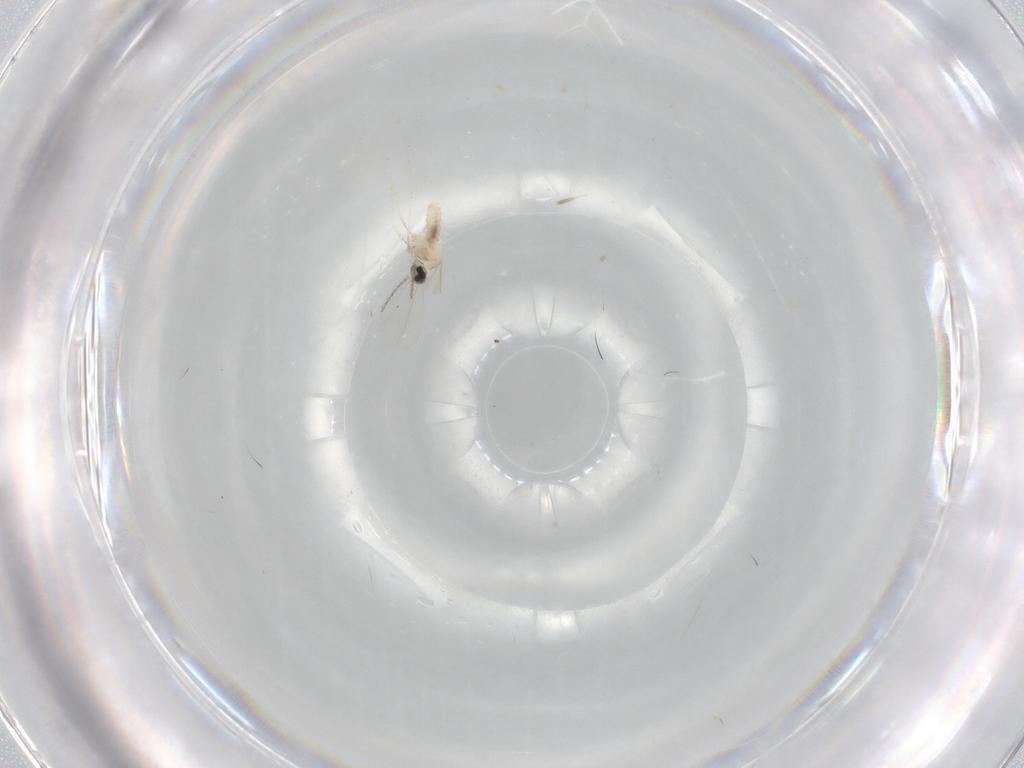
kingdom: Animalia
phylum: Arthropoda
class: Insecta
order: Diptera
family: Cecidomyiidae
